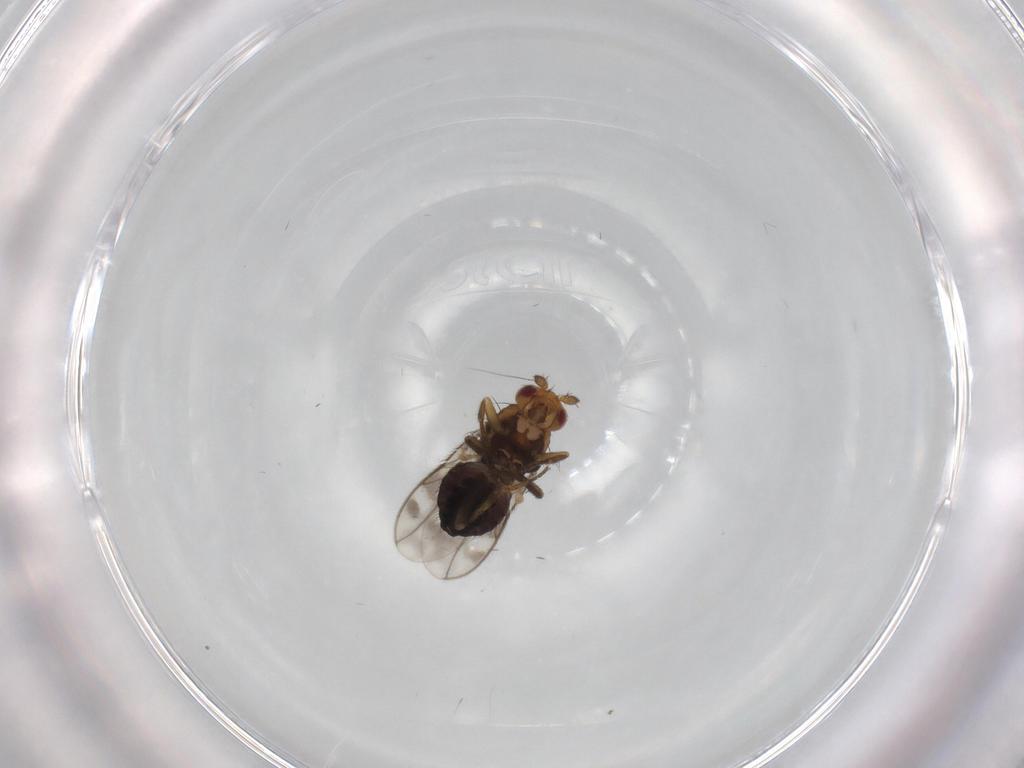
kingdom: Animalia
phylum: Arthropoda
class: Insecta
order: Diptera
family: Sphaeroceridae
